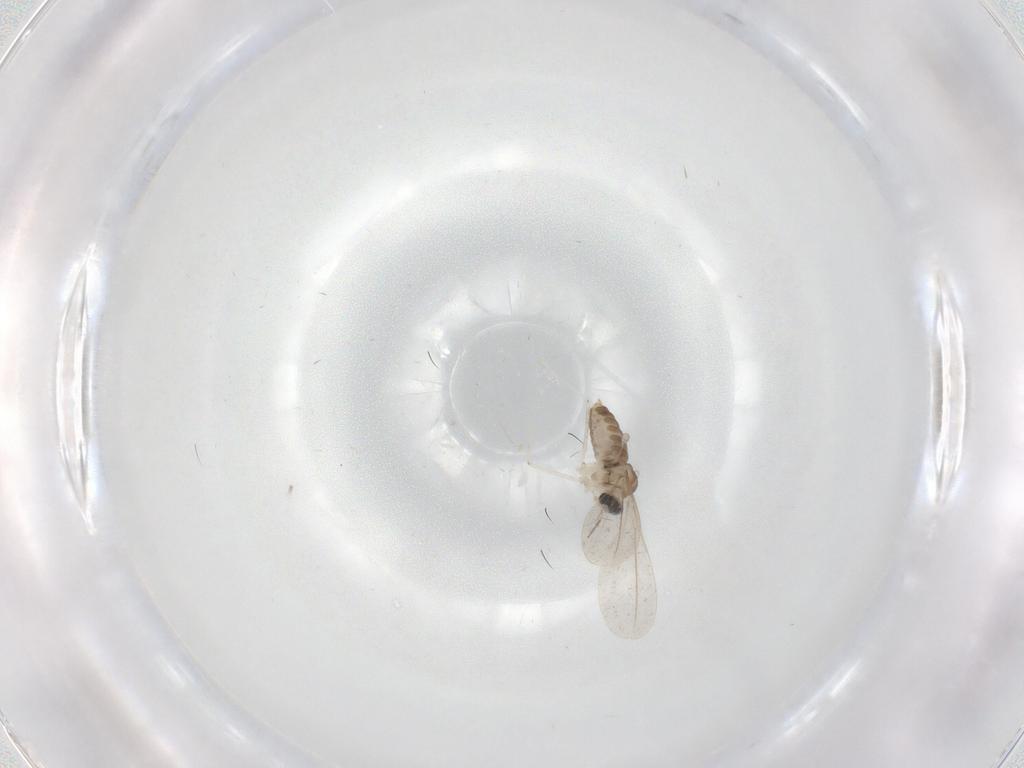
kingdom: Animalia
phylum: Arthropoda
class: Insecta
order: Diptera
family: Cecidomyiidae
